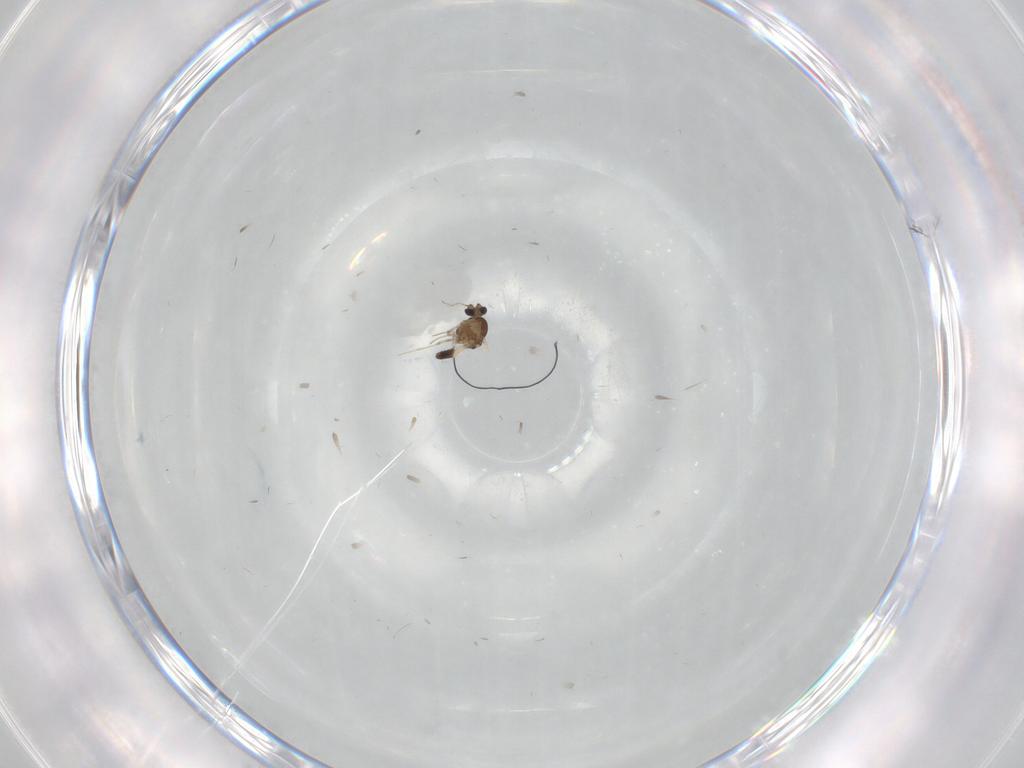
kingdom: Animalia
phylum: Arthropoda
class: Insecta
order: Diptera
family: Ceratopogonidae
